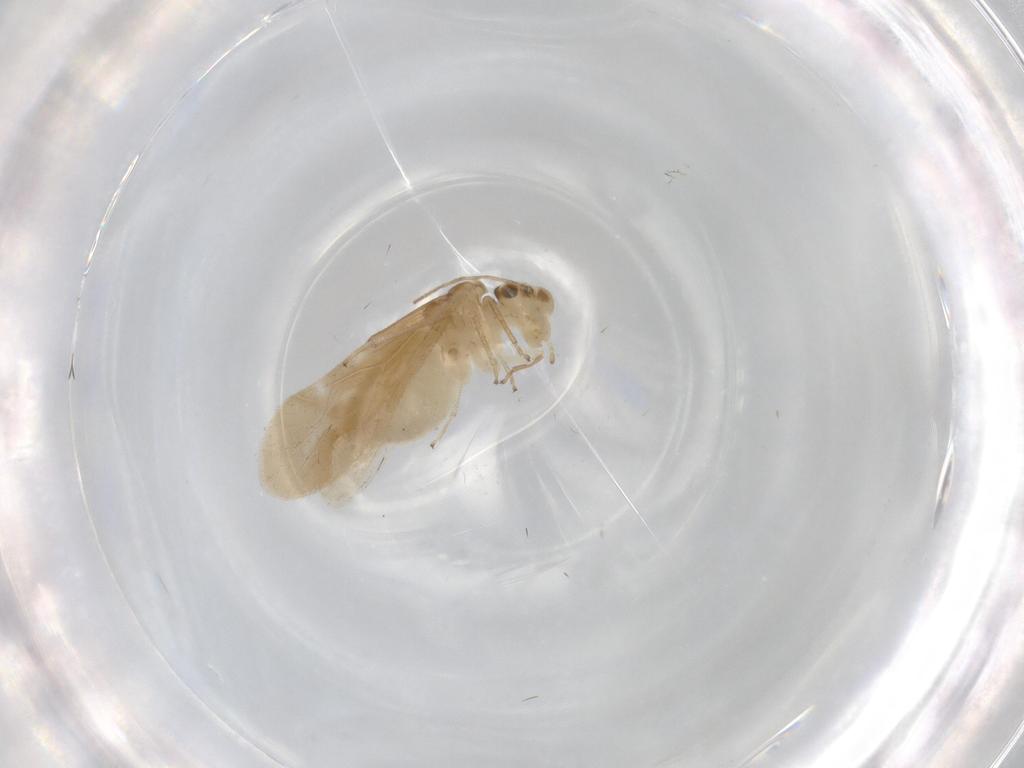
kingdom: Animalia
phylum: Arthropoda
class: Insecta
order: Psocodea
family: Caeciliusidae
